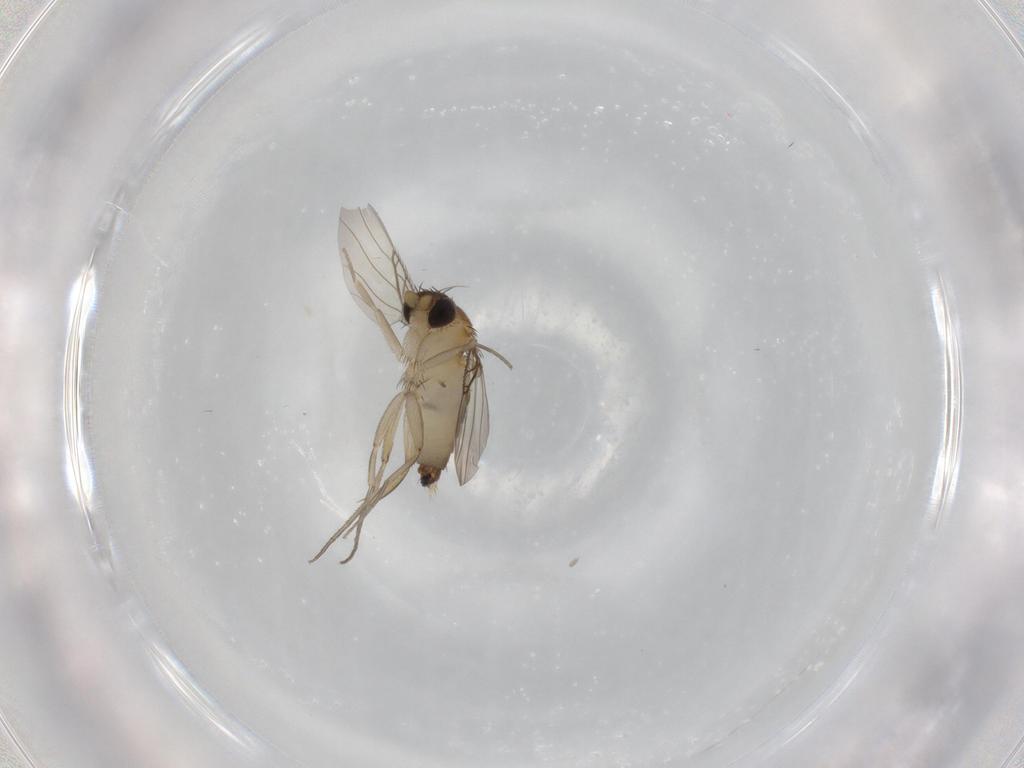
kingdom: Animalia
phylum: Arthropoda
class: Insecta
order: Diptera
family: Phoridae
